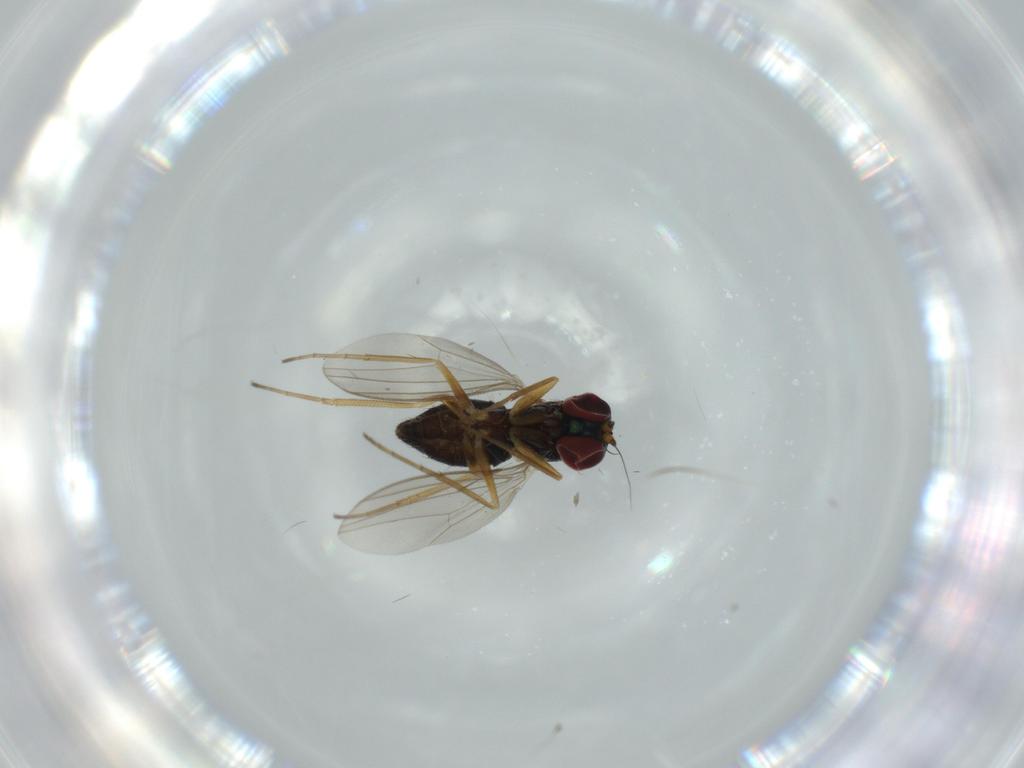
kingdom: Animalia
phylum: Arthropoda
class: Insecta
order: Diptera
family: Dolichopodidae
